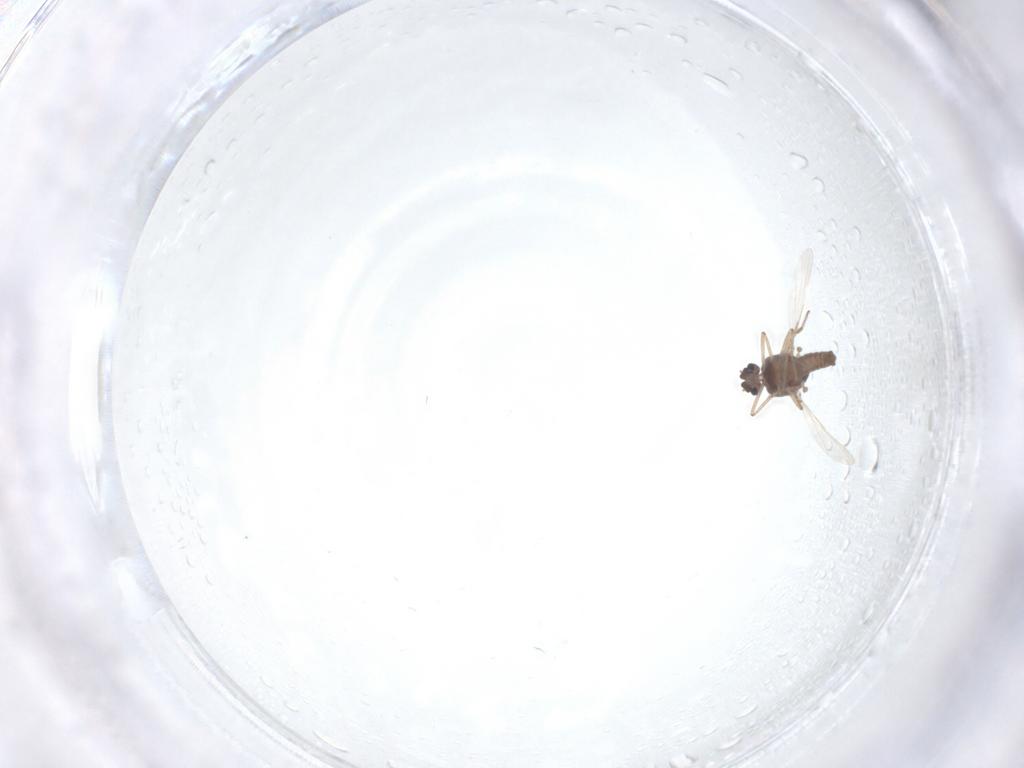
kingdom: Animalia
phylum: Arthropoda
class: Insecta
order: Diptera
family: Ceratopogonidae
